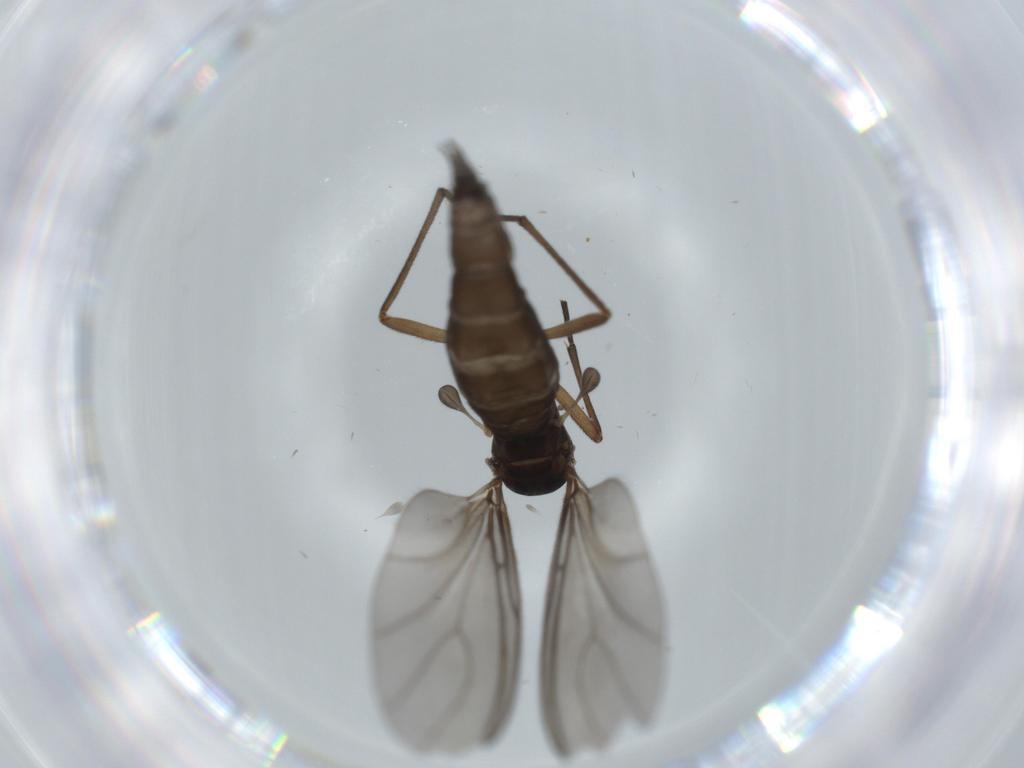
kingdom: Animalia
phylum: Arthropoda
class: Insecta
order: Diptera
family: Sciaridae
